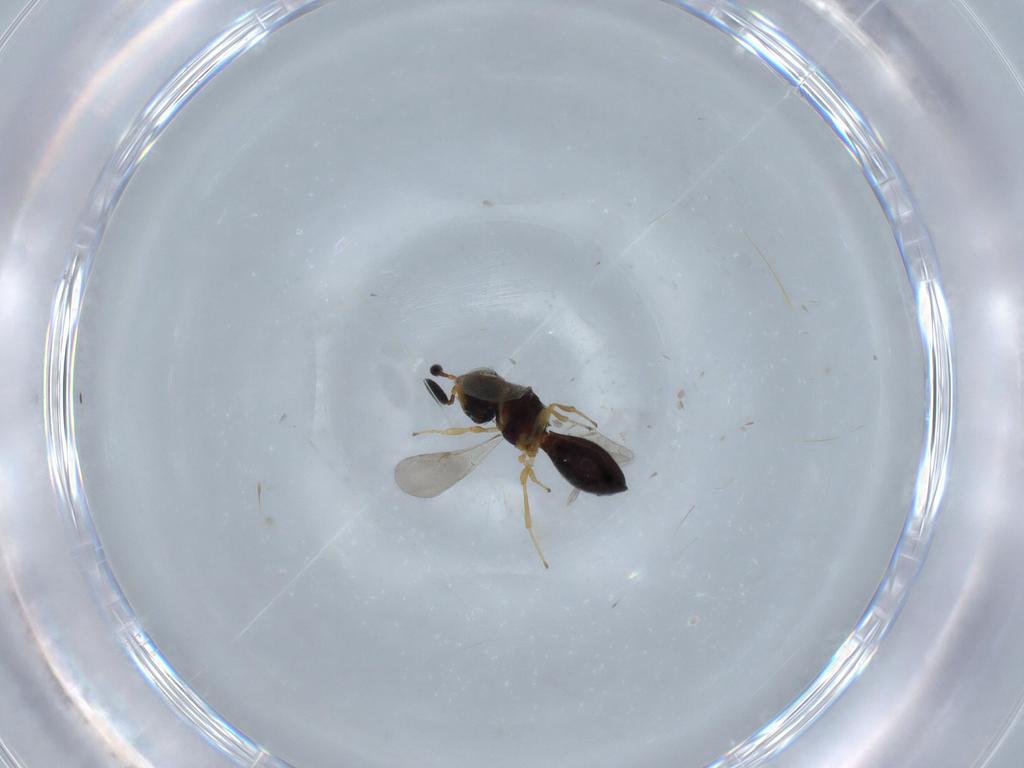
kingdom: Animalia
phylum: Arthropoda
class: Insecta
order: Hymenoptera
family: Scelionidae
